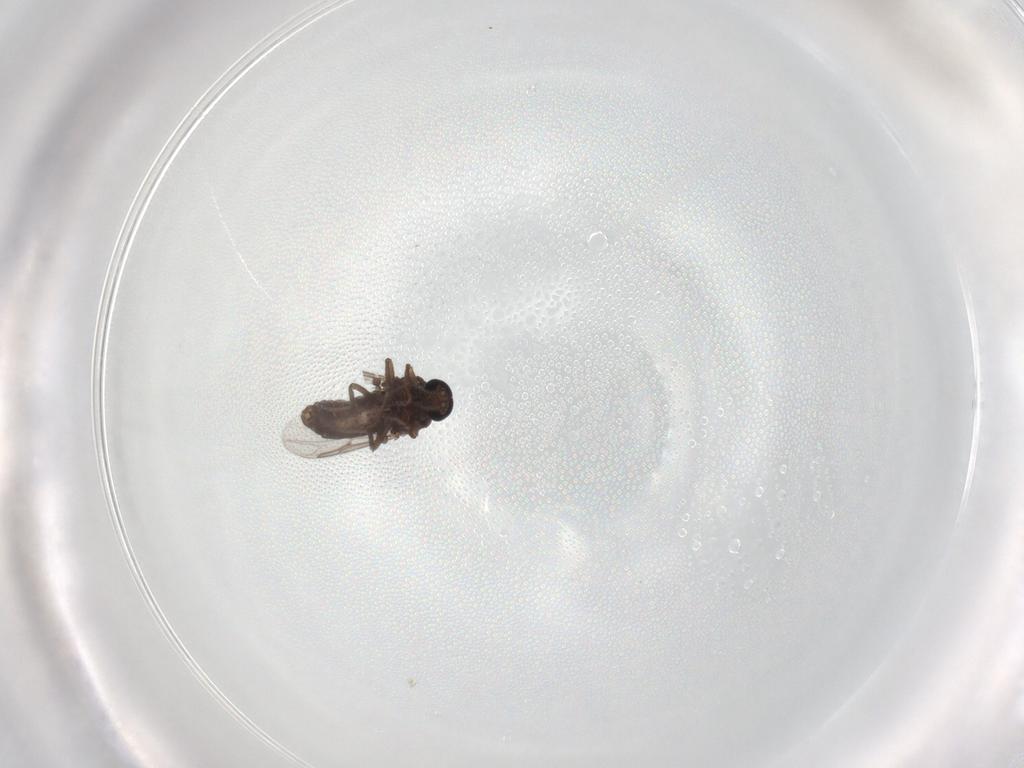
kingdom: Animalia
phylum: Arthropoda
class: Insecta
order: Diptera
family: Ceratopogonidae
